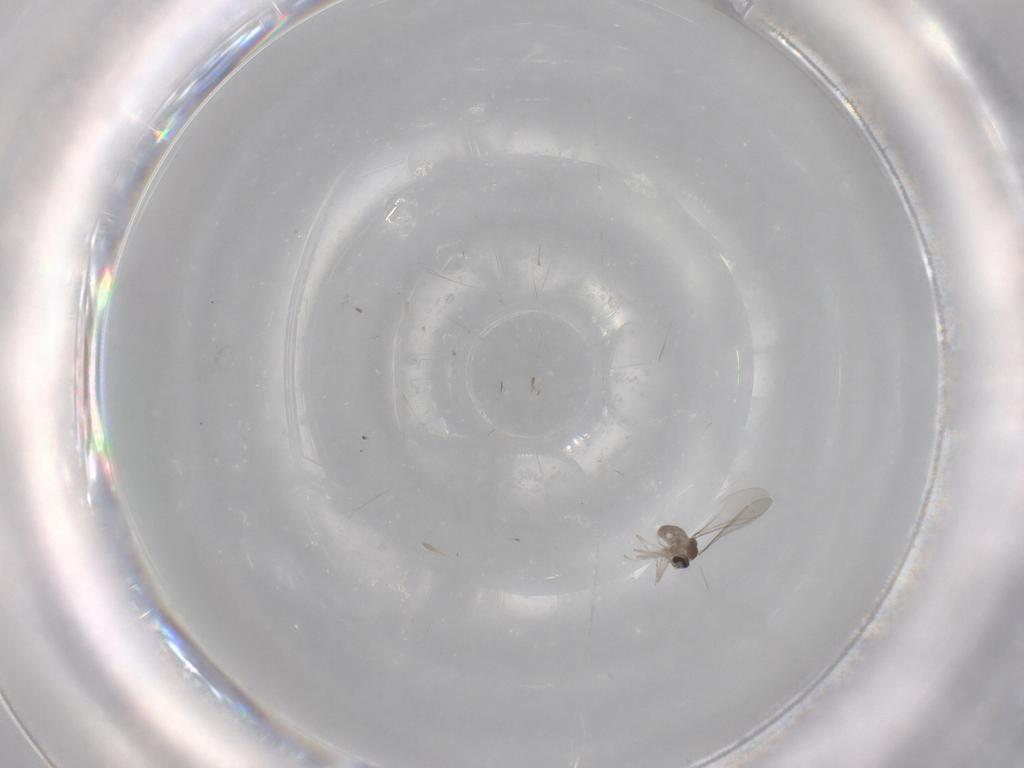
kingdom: Animalia
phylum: Arthropoda
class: Insecta
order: Diptera
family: Cecidomyiidae
